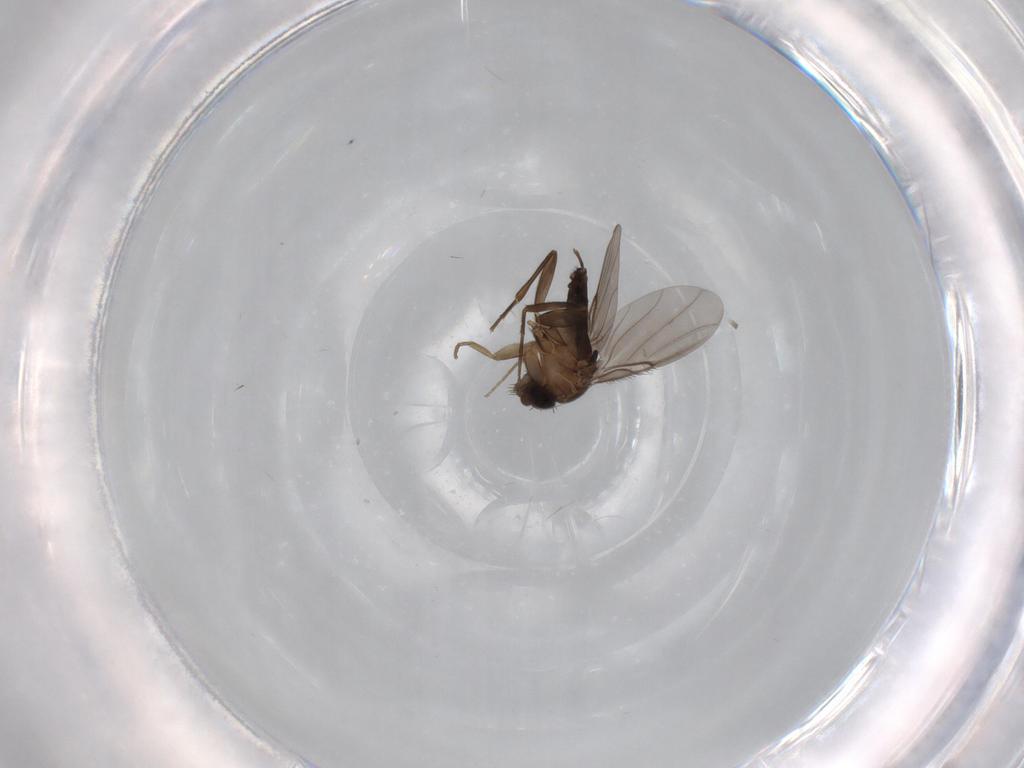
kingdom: Animalia
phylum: Arthropoda
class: Insecta
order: Diptera
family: Phoridae
